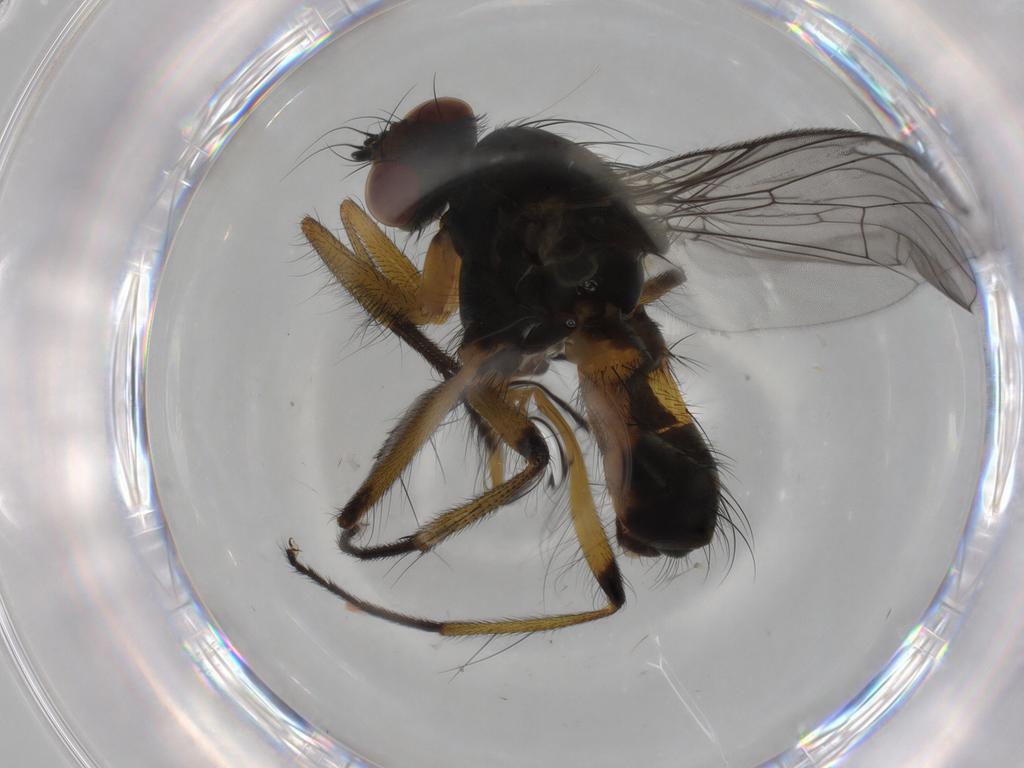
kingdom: Animalia
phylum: Arthropoda
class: Insecta
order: Diptera
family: Muscidae
